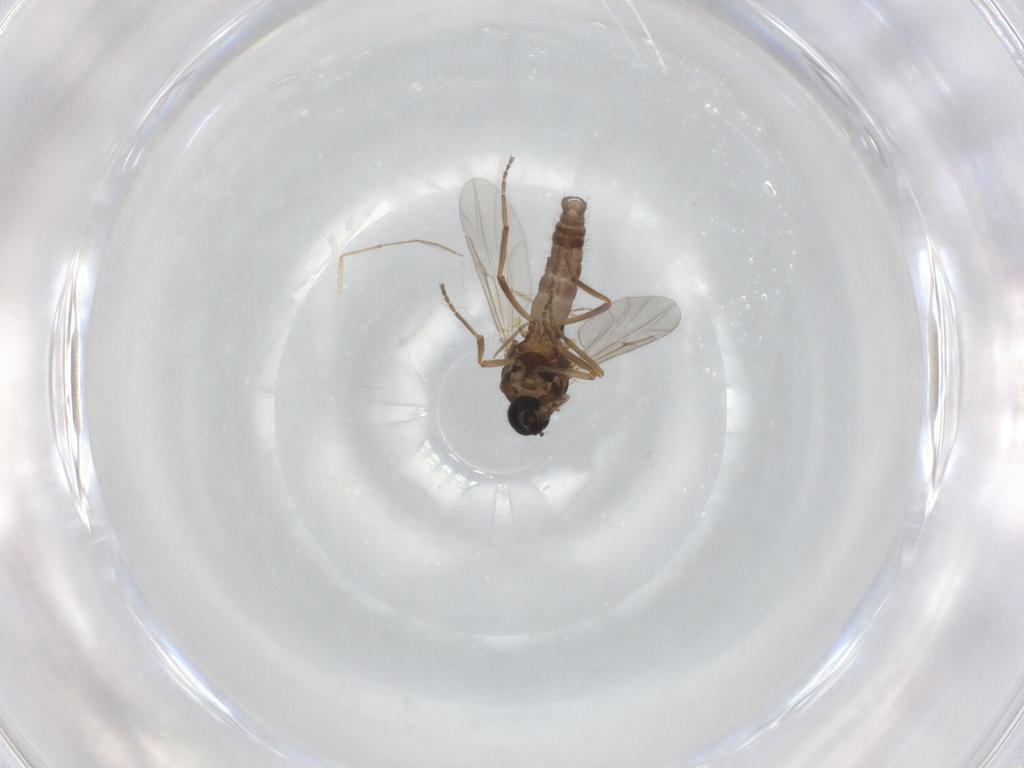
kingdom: Animalia
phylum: Arthropoda
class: Insecta
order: Diptera
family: Ceratopogonidae
